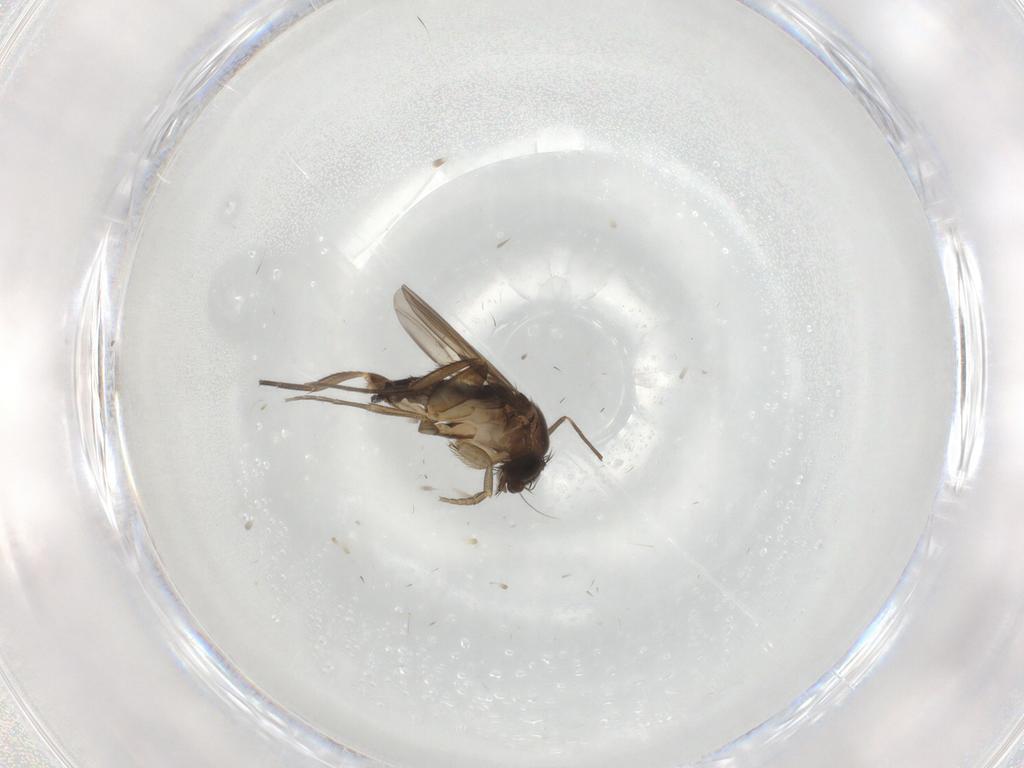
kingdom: Animalia
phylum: Arthropoda
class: Insecta
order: Diptera
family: Phoridae
